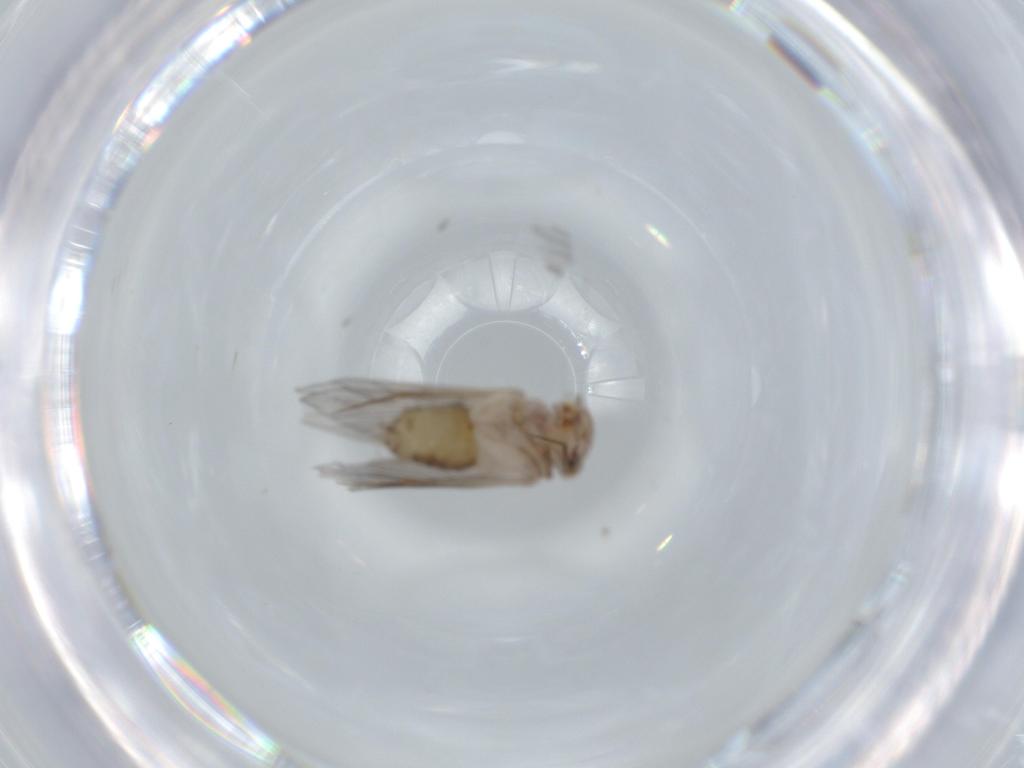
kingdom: Animalia
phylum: Arthropoda
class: Insecta
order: Psocodea
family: Lepidopsocidae
